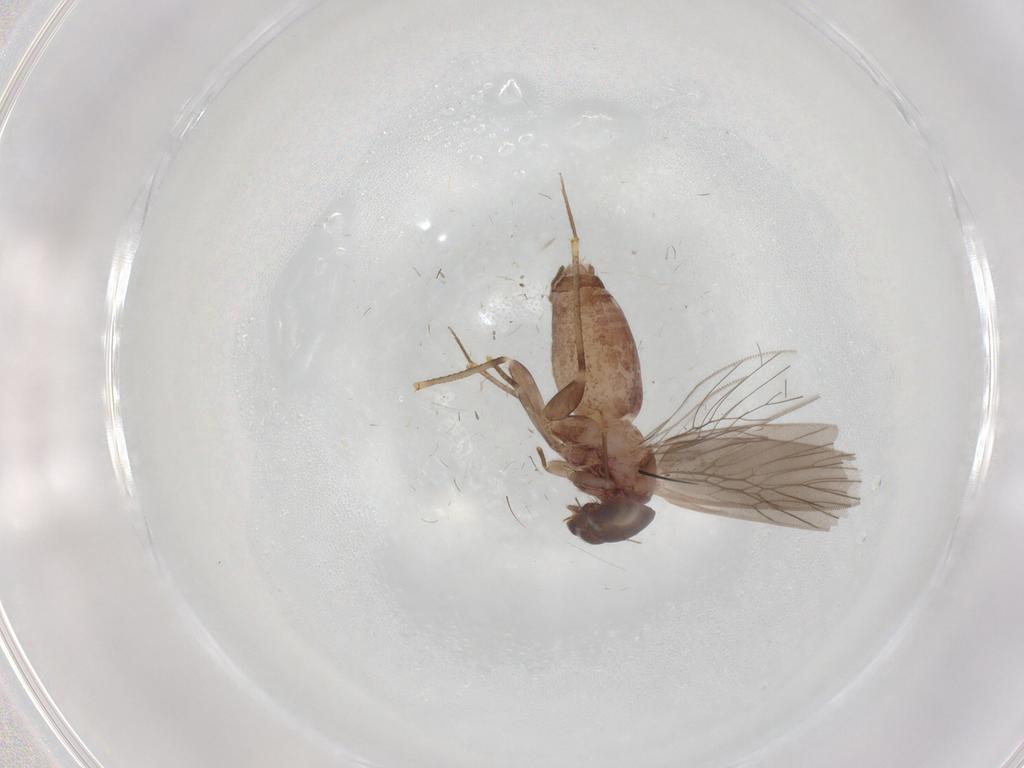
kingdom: Animalia
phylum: Arthropoda
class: Insecta
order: Psocodea
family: Lepidopsocidae
